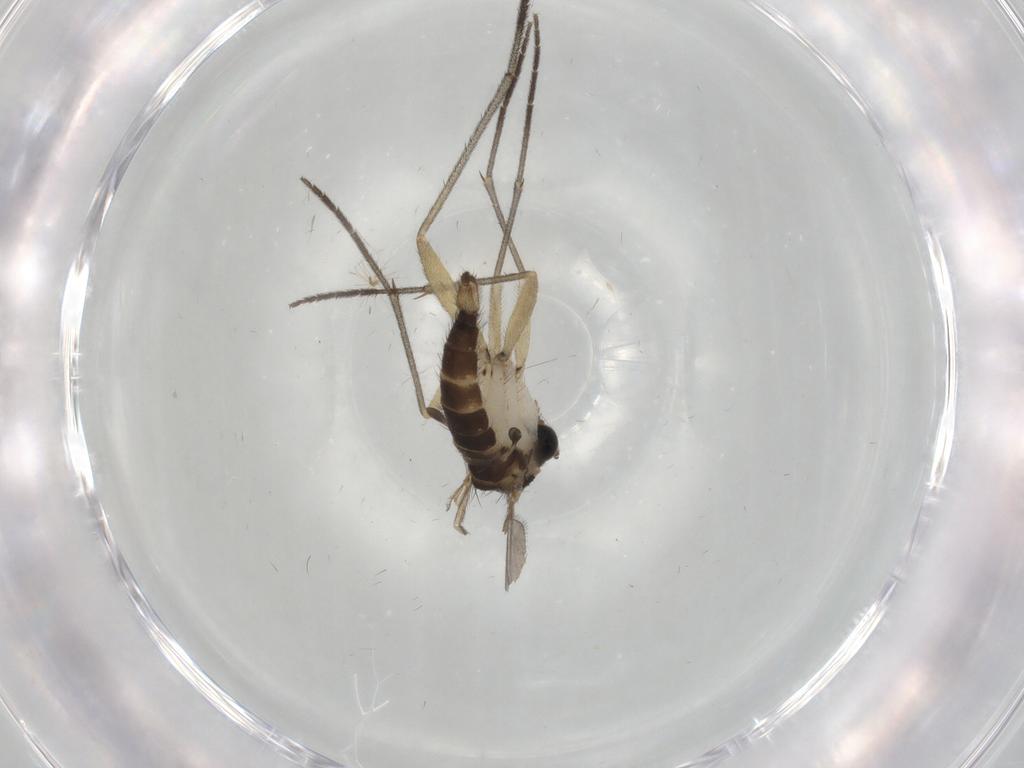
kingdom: Animalia
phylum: Arthropoda
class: Insecta
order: Diptera
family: Sciaridae
